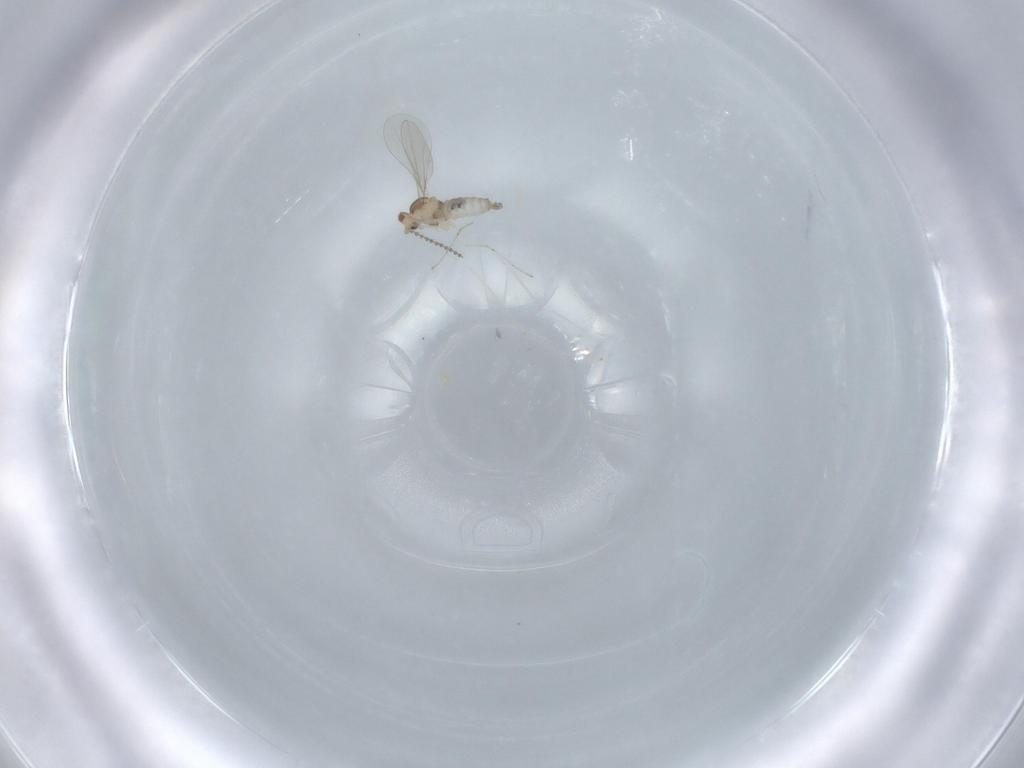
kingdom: Animalia
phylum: Arthropoda
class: Insecta
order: Diptera
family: Cecidomyiidae
